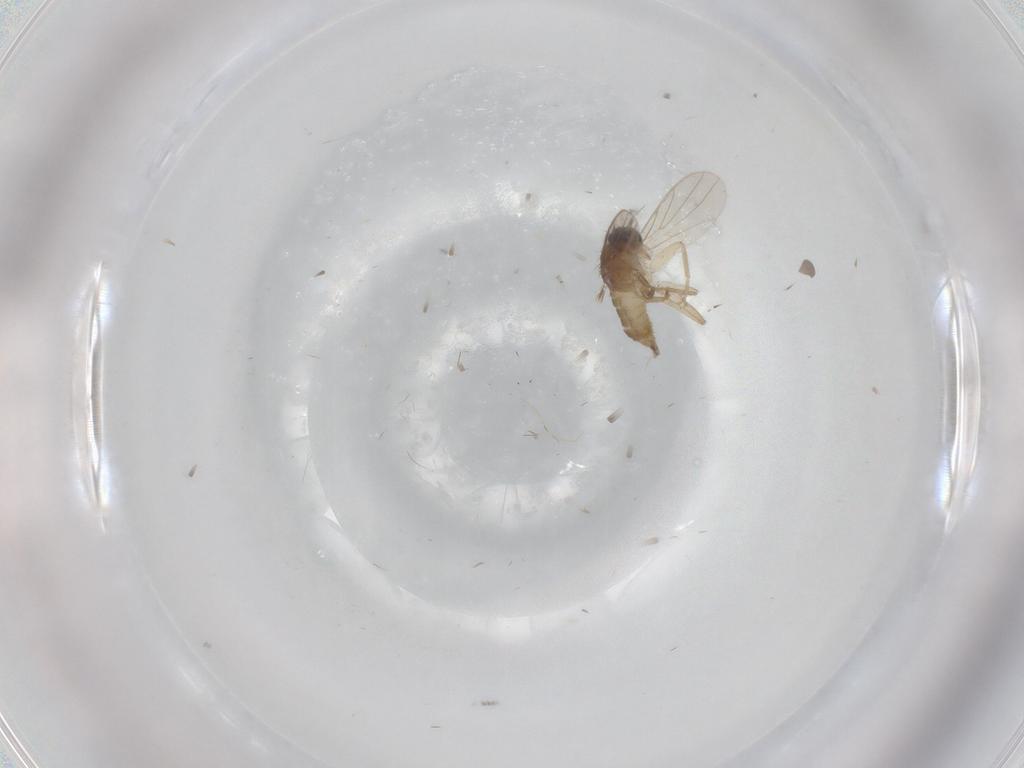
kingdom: Animalia
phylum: Arthropoda
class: Insecta
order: Diptera
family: Hybotidae
